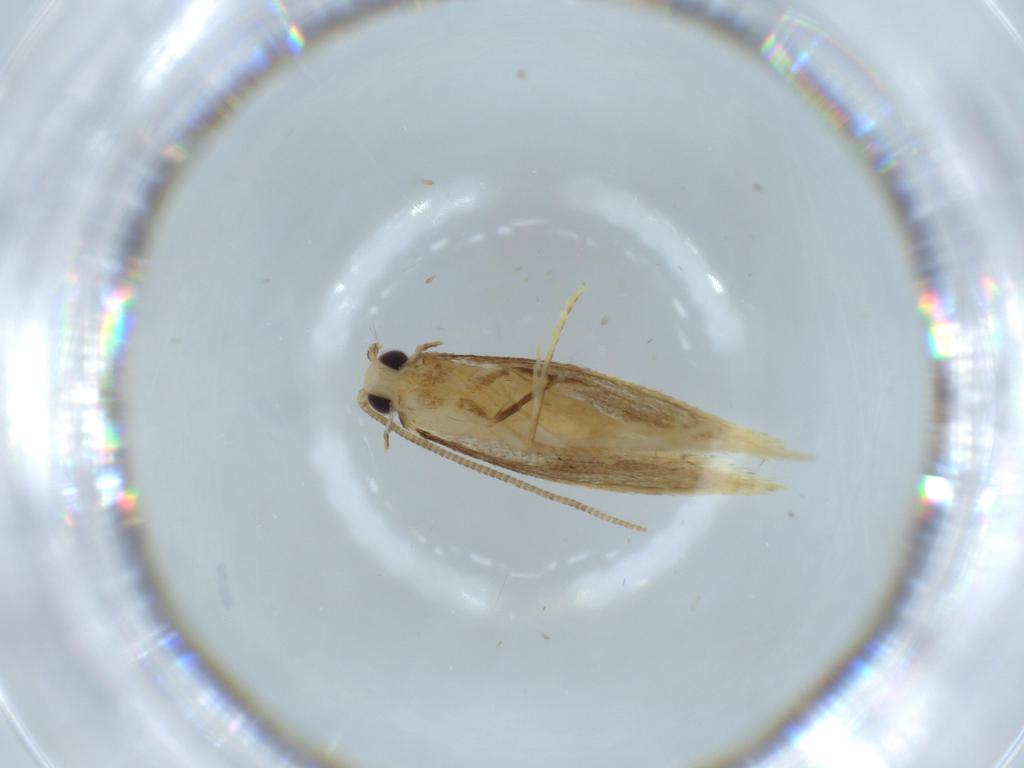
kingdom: Animalia
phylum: Arthropoda
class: Insecta
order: Lepidoptera
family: Tineidae
